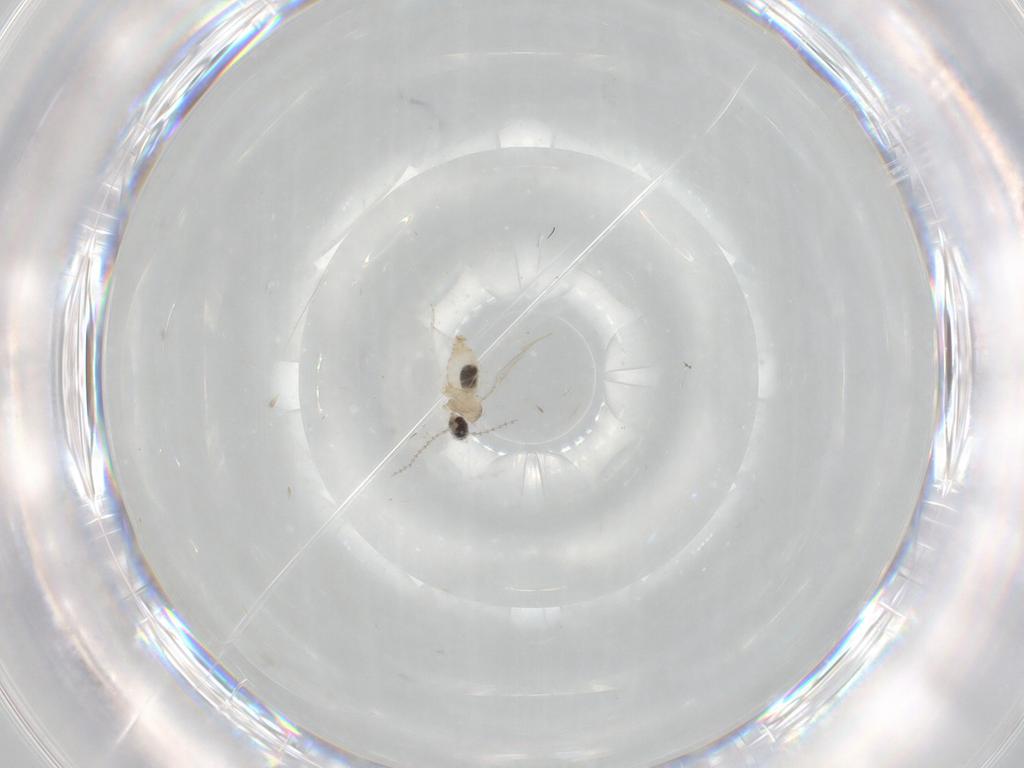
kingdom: Animalia
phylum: Arthropoda
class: Insecta
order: Diptera
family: Cecidomyiidae
